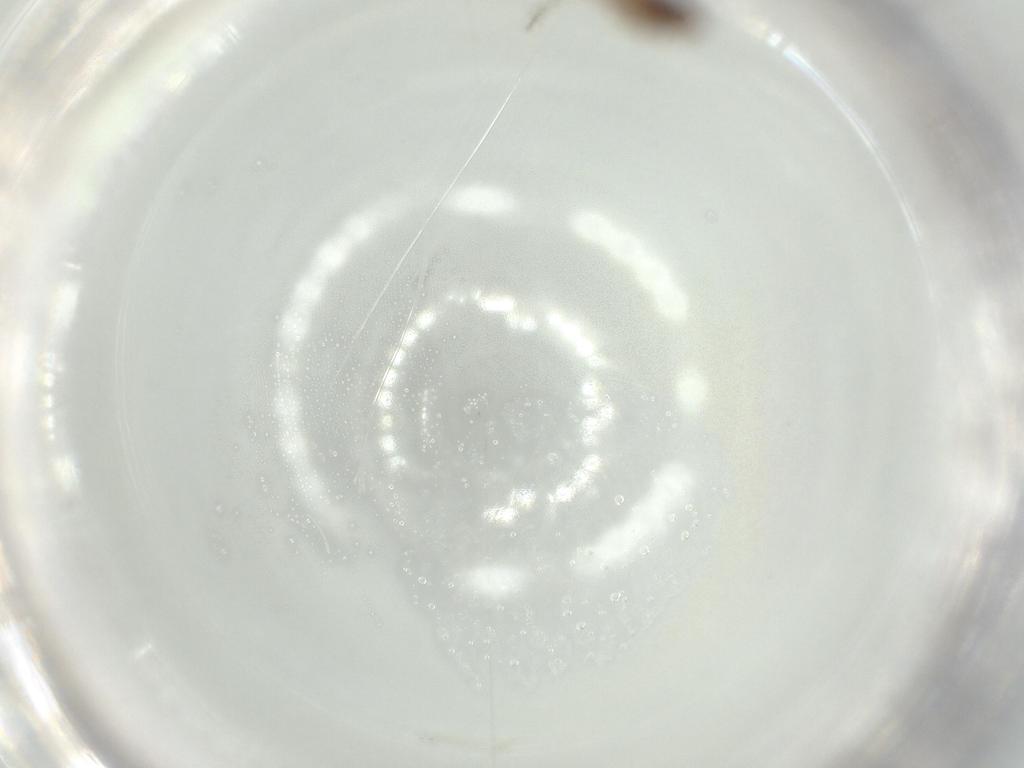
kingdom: Animalia
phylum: Arthropoda
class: Insecta
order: Archaeognatha
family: Machilidae
